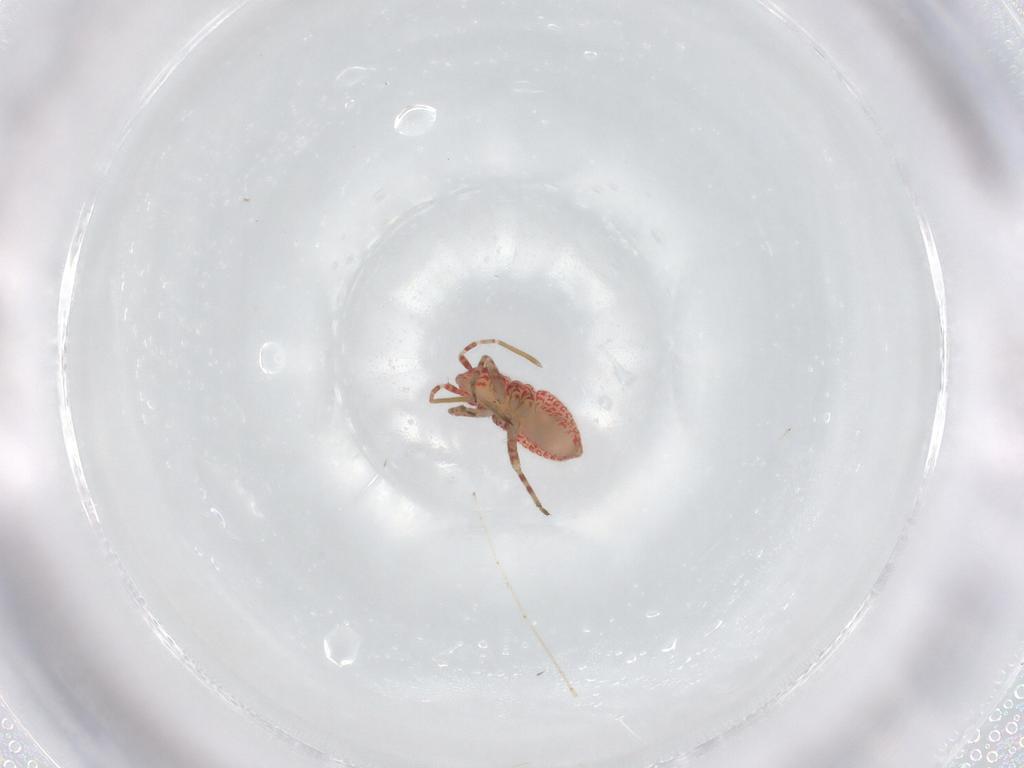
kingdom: Animalia
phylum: Arthropoda
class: Insecta
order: Hemiptera
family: Miridae
